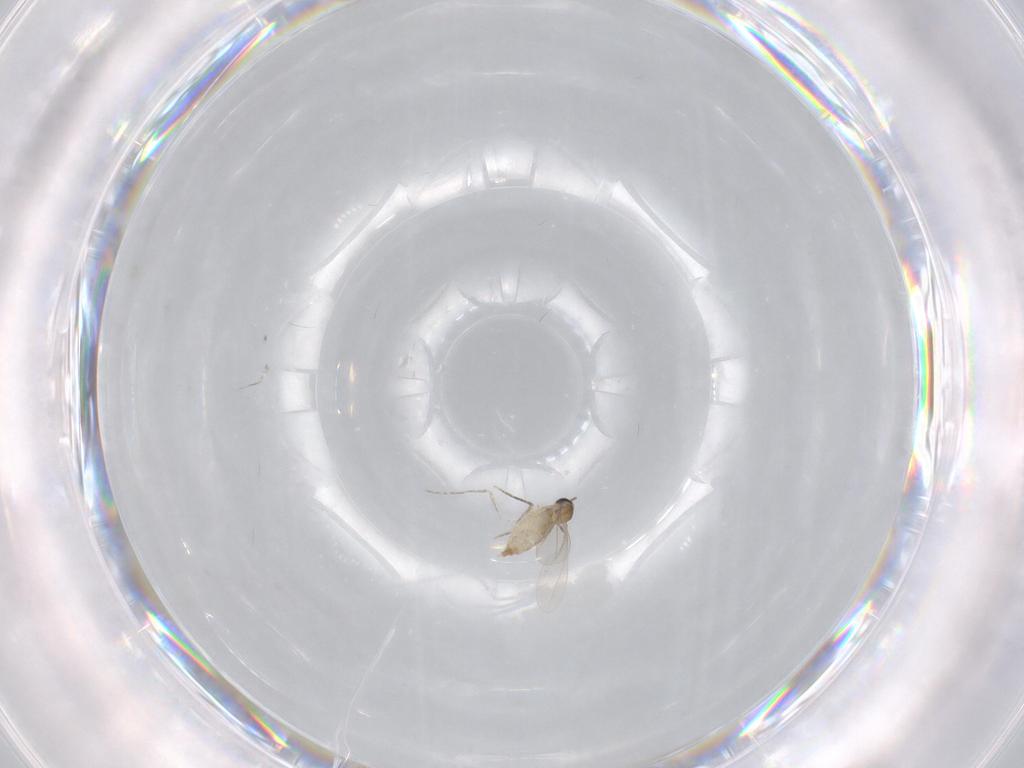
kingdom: Animalia
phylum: Arthropoda
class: Insecta
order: Diptera
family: Cecidomyiidae
